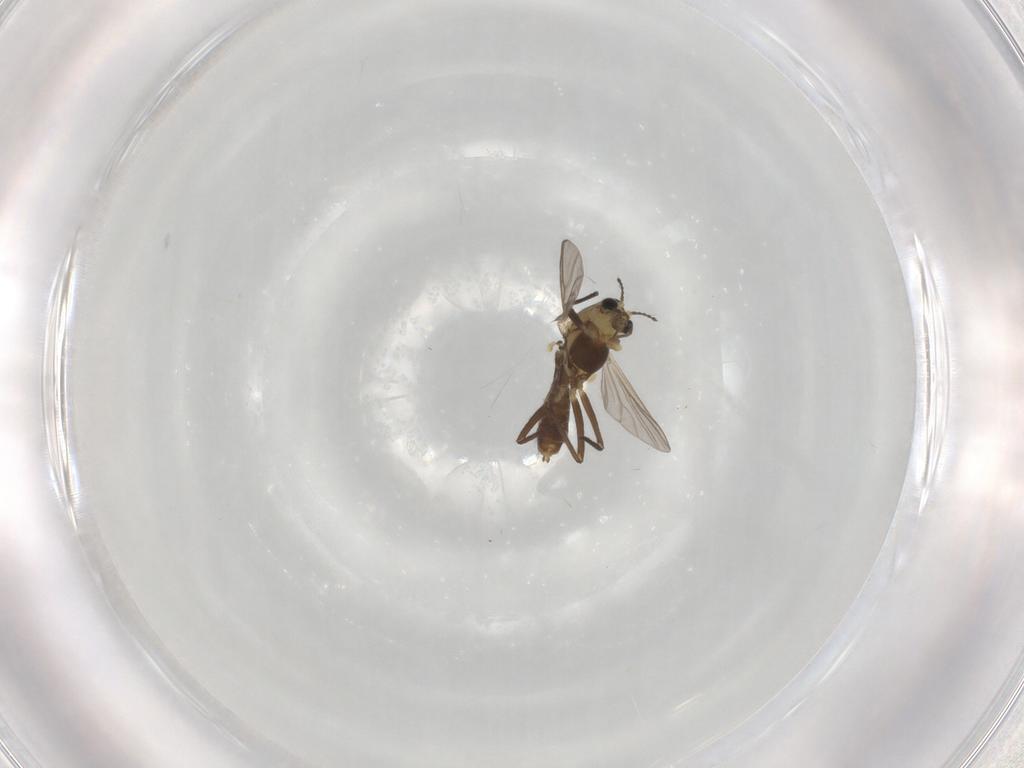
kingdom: Animalia
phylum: Arthropoda
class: Insecta
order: Diptera
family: Chironomidae
